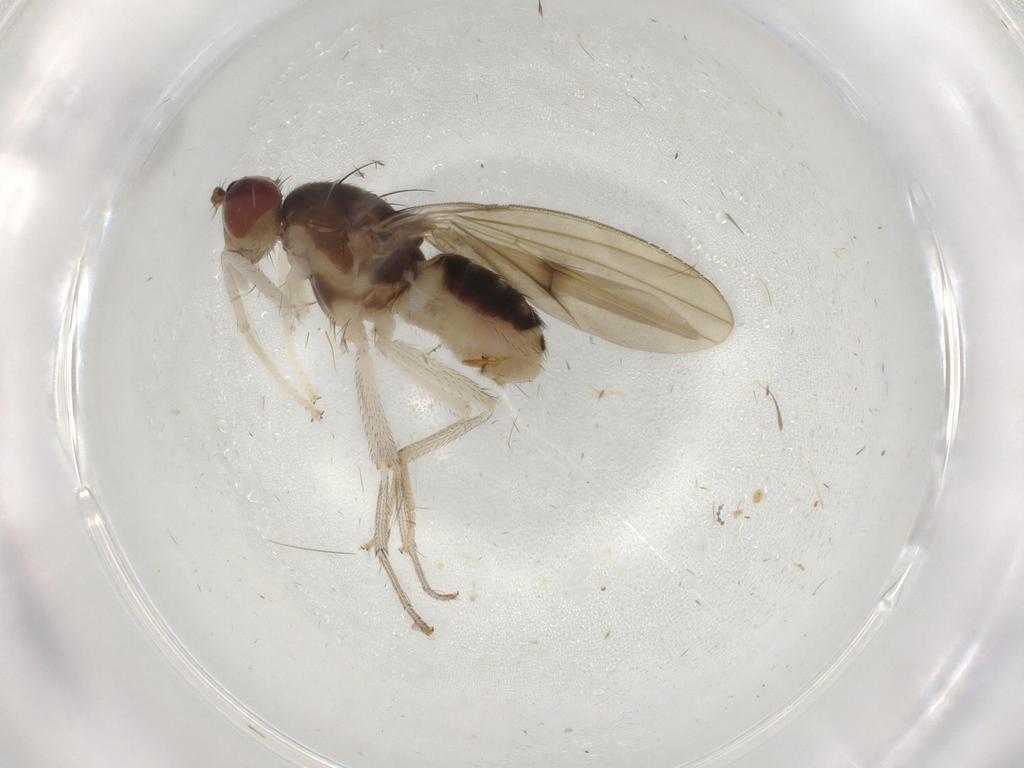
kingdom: Animalia
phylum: Arthropoda
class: Insecta
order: Diptera
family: Lauxaniidae
